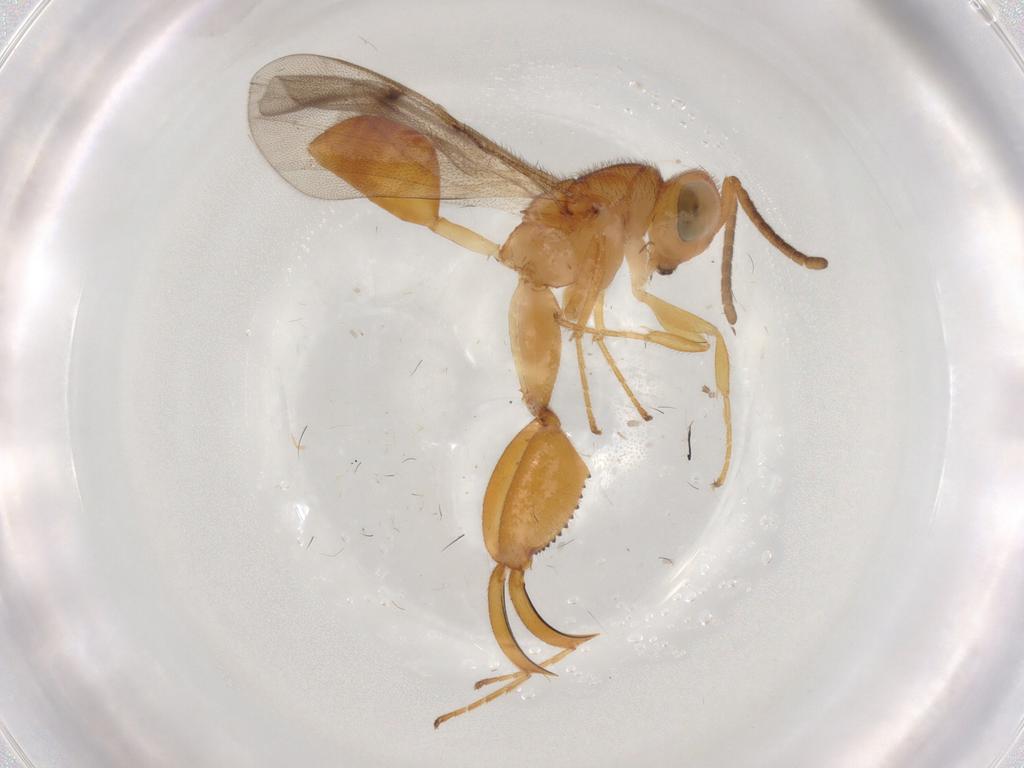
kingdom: Animalia
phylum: Arthropoda
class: Insecta
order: Hymenoptera
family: Chalcididae
